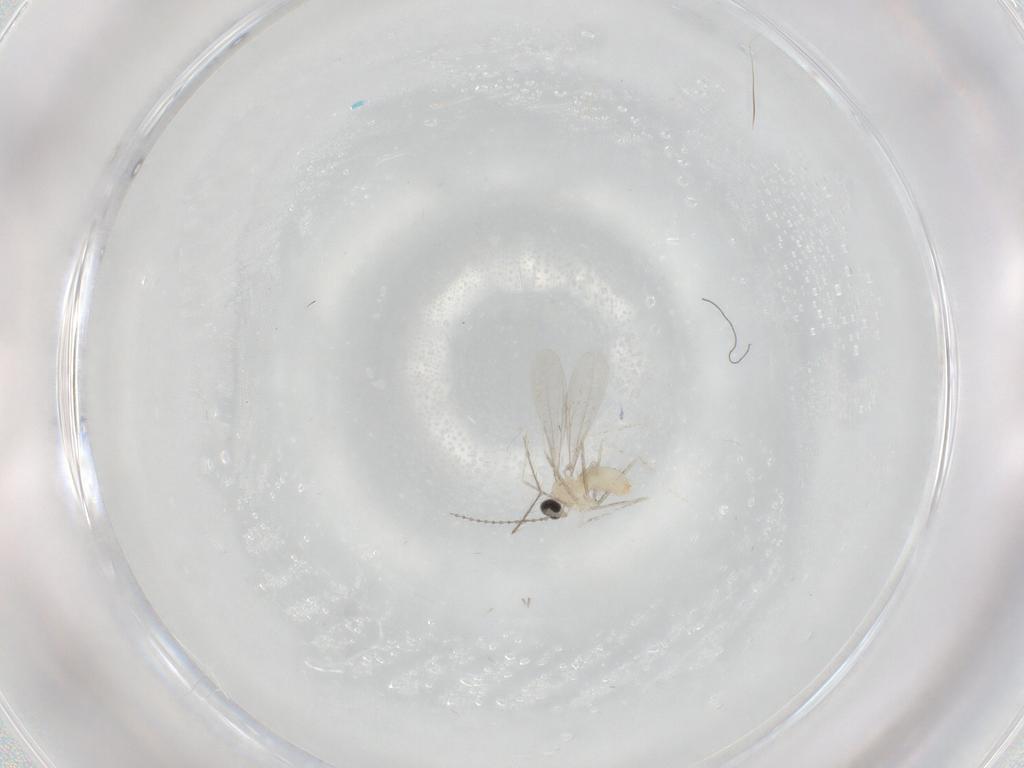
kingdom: Animalia
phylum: Arthropoda
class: Insecta
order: Diptera
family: Cecidomyiidae
